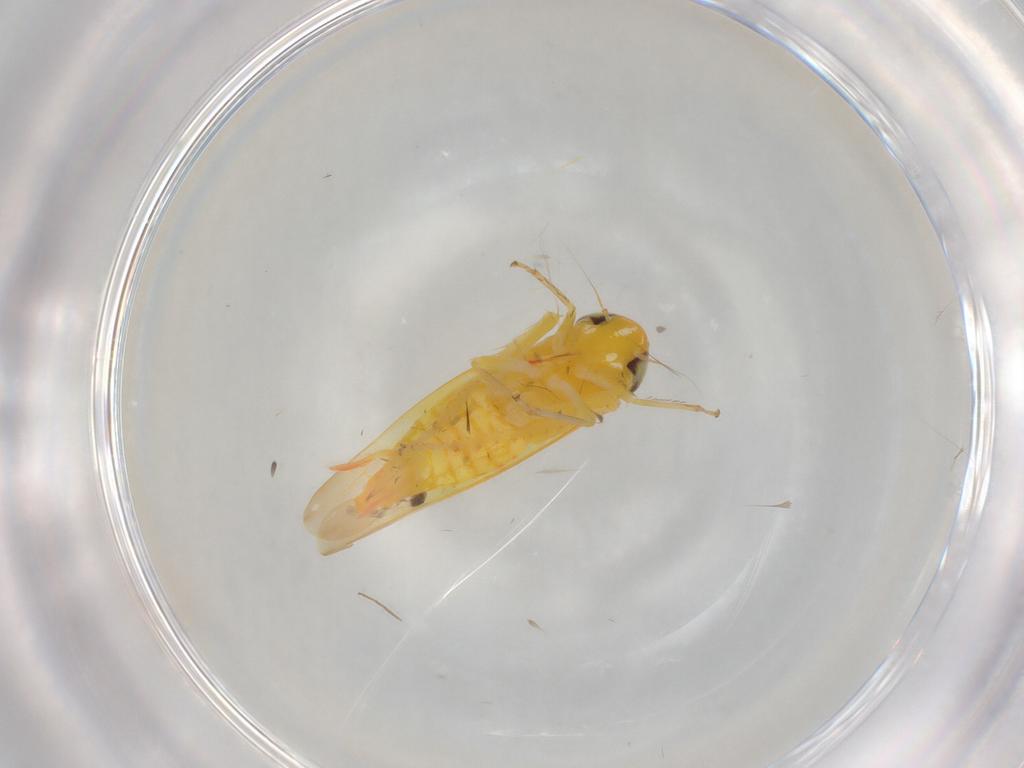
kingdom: Animalia
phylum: Arthropoda
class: Insecta
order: Hemiptera
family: Cicadellidae
